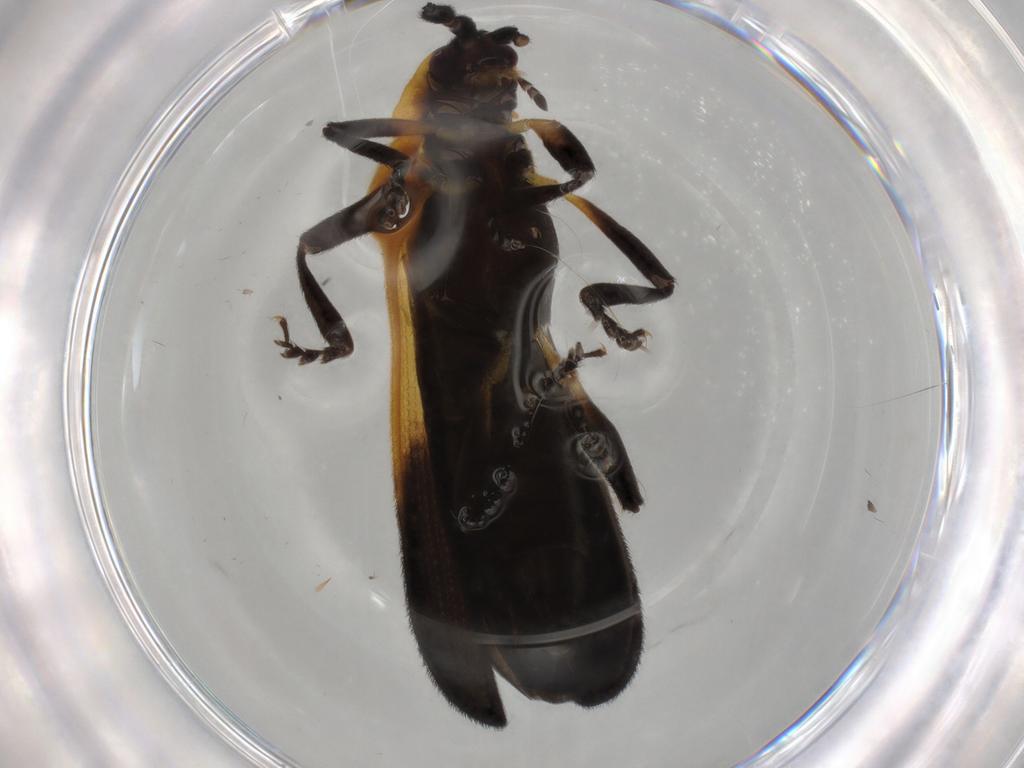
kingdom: Animalia
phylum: Arthropoda
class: Insecta
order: Coleoptera
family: Lycidae
